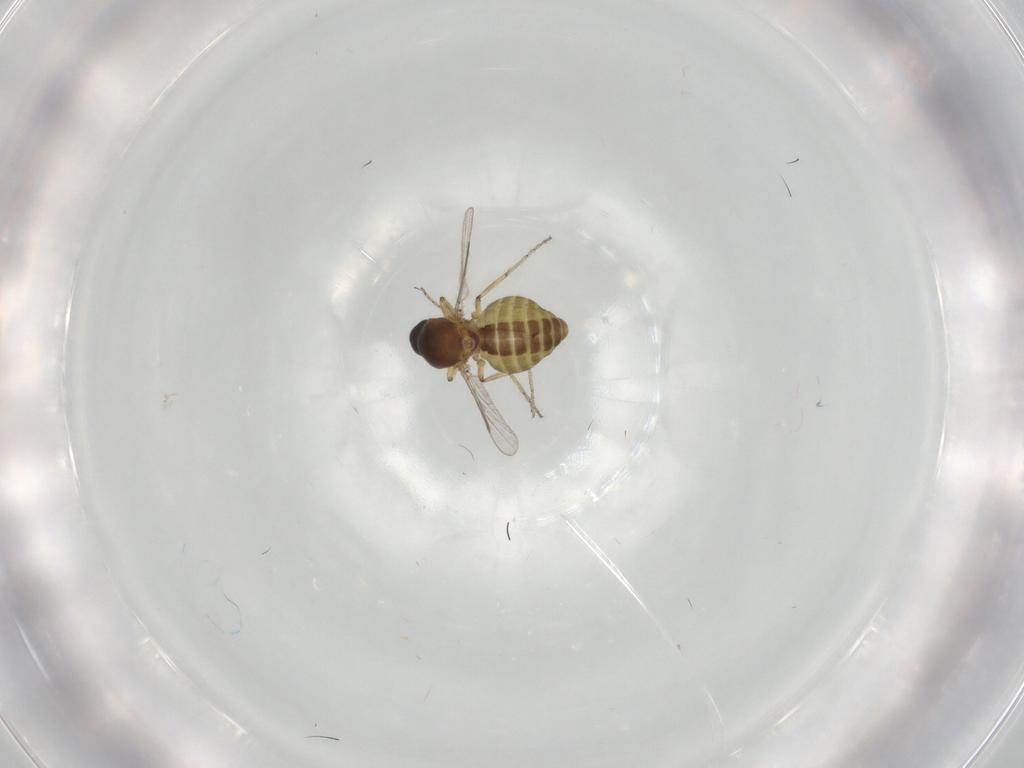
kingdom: Animalia
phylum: Arthropoda
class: Insecta
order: Diptera
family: Ceratopogonidae
